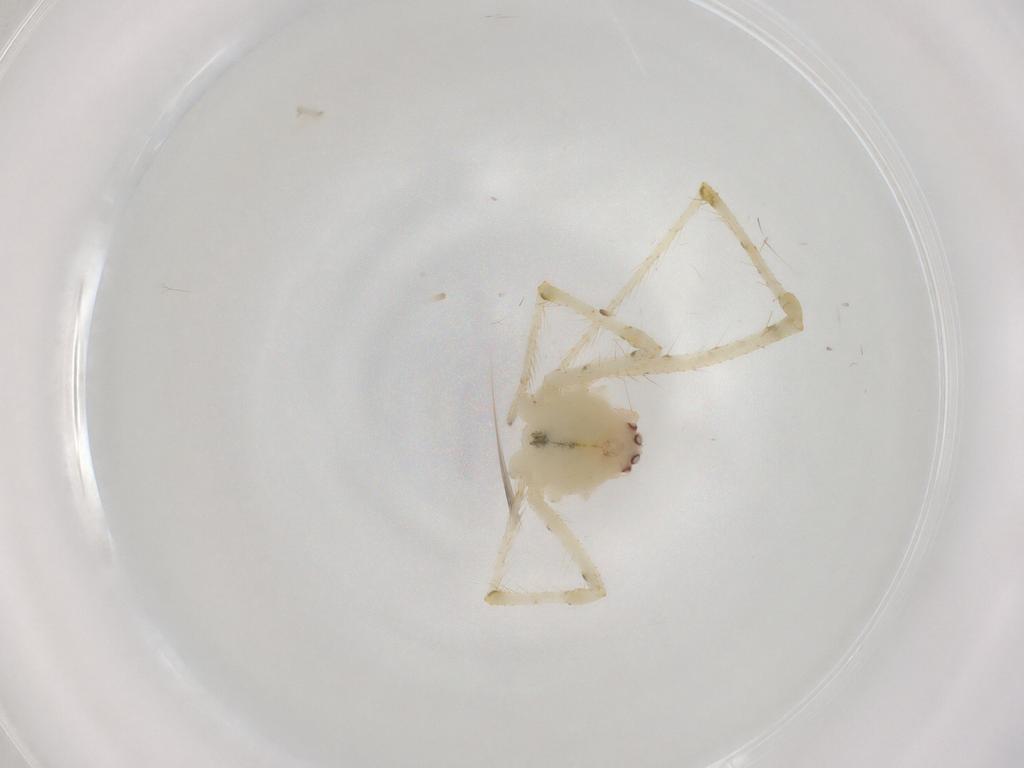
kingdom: Animalia
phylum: Arthropoda
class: Arachnida
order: Araneae
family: Theridiidae
